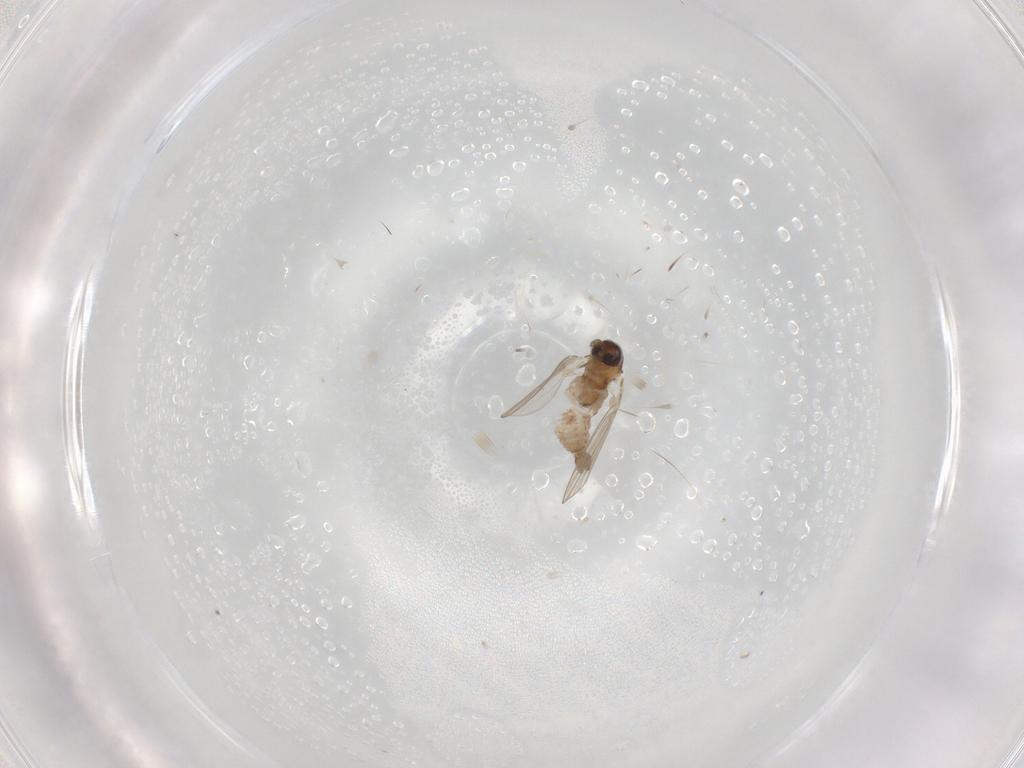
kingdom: Animalia
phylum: Arthropoda
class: Insecta
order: Diptera
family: Psychodidae
